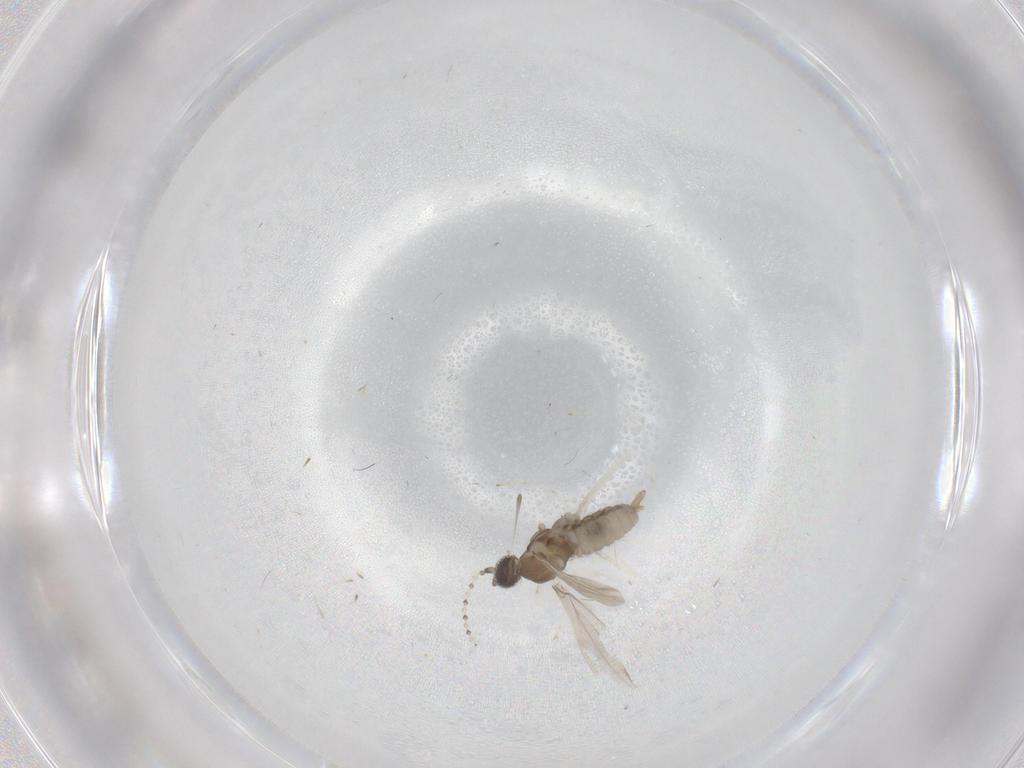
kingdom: Animalia
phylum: Arthropoda
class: Insecta
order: Diptera
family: Cecidomyiidae
